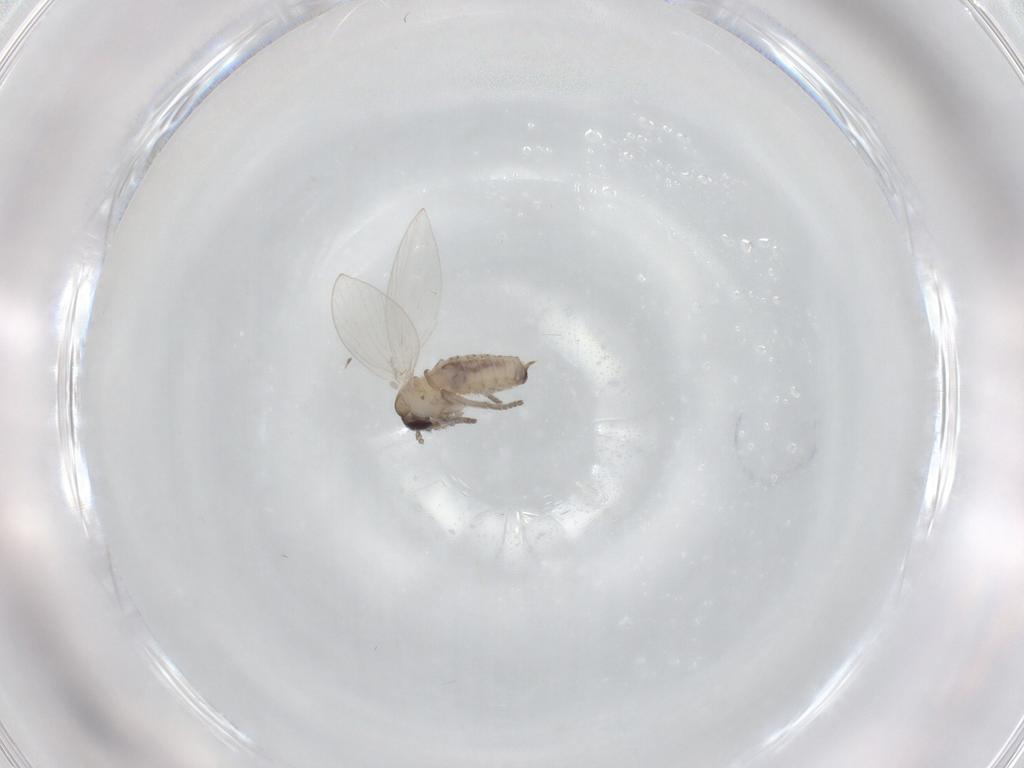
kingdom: Animalia
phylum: Arthropoda
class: Insecta
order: Diptera
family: Psychodidae
